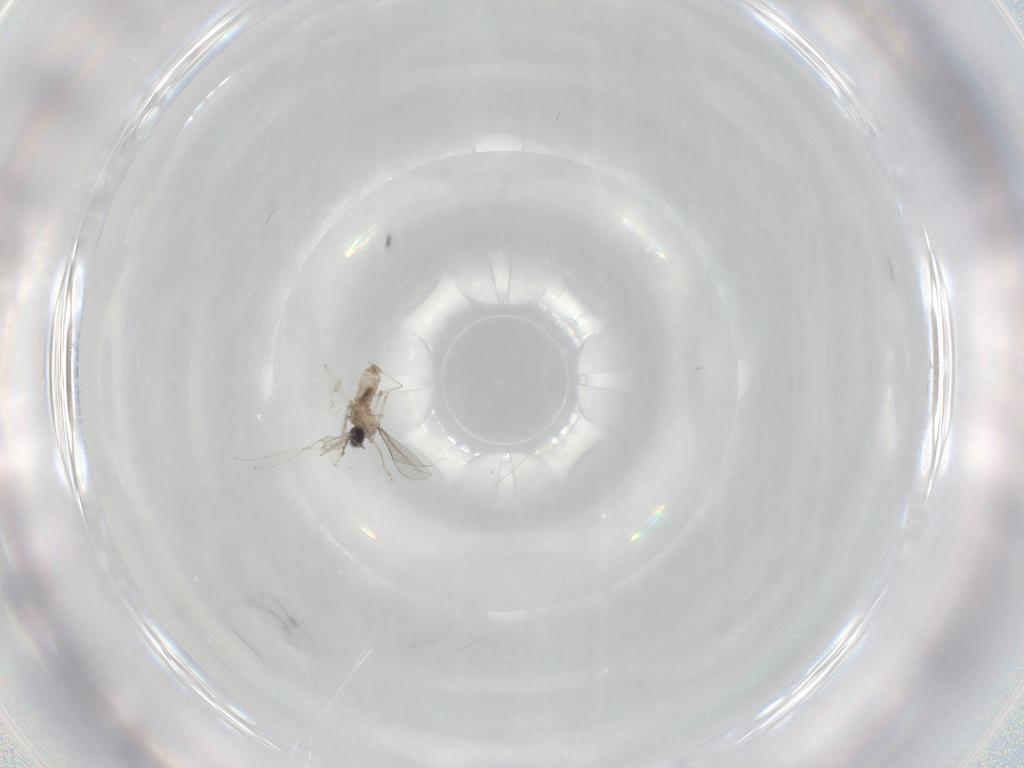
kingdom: Animalia
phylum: Arthropoda
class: Insecta
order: Diptera
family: Cecidomyiidae
